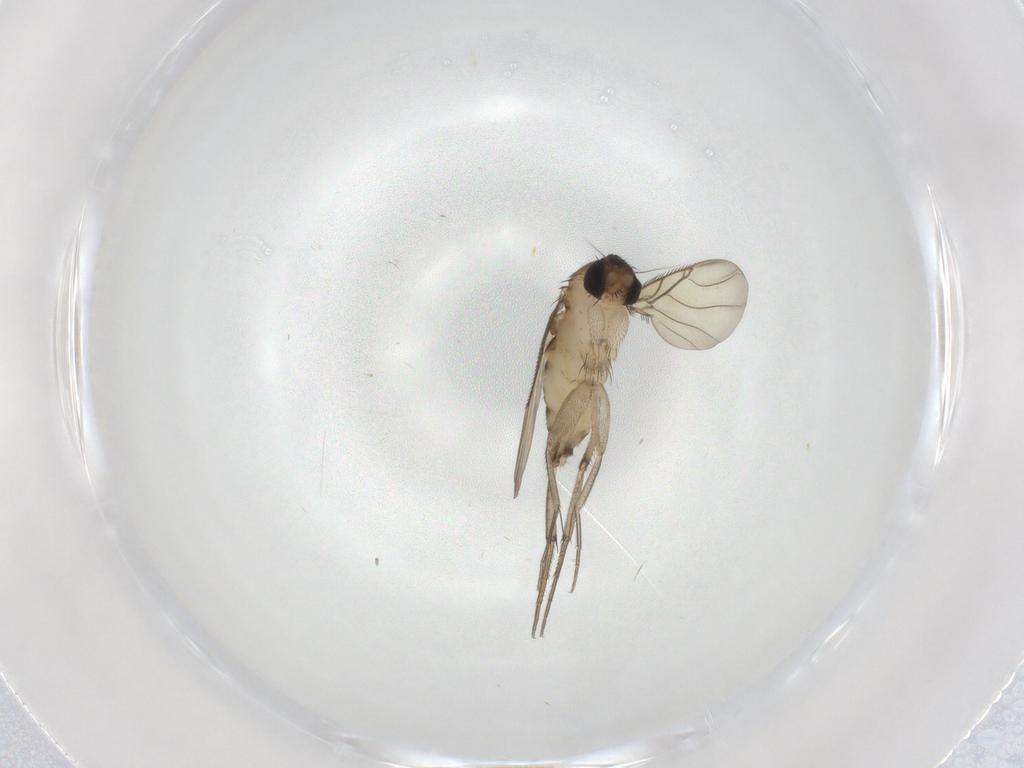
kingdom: Animalia
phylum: Arthropoda
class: Insecta
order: Diptera
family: Phoridae
